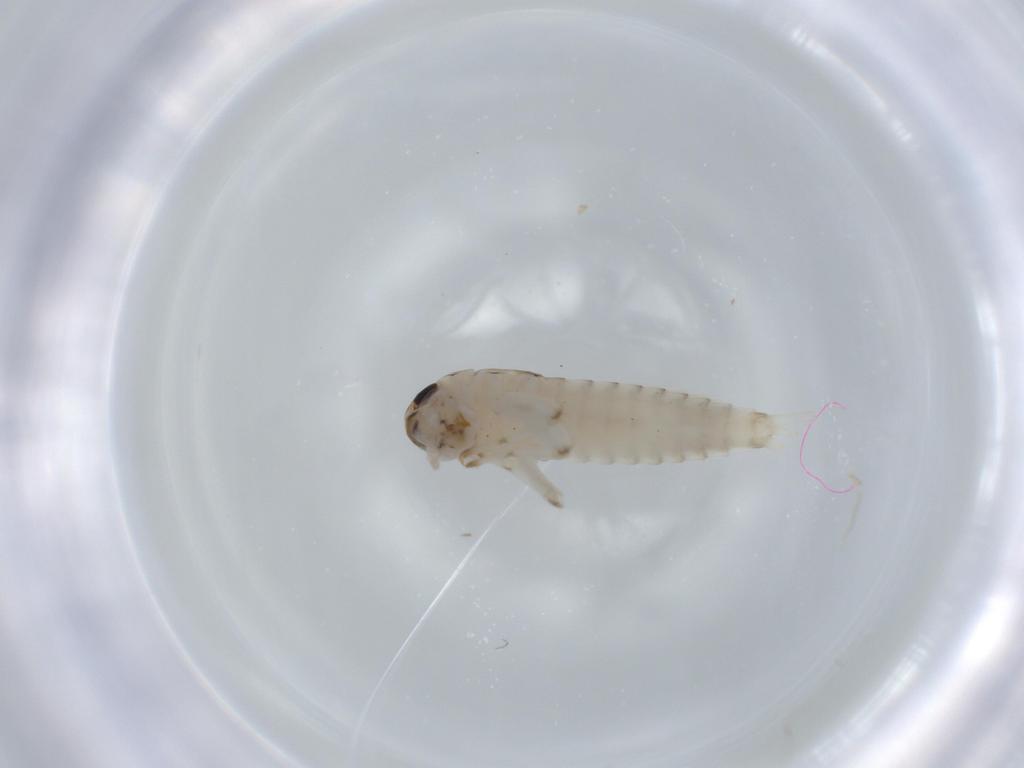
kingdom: Animalia
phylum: Arthropoda
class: Insecta
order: Ephemeroptera
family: Baetidae
